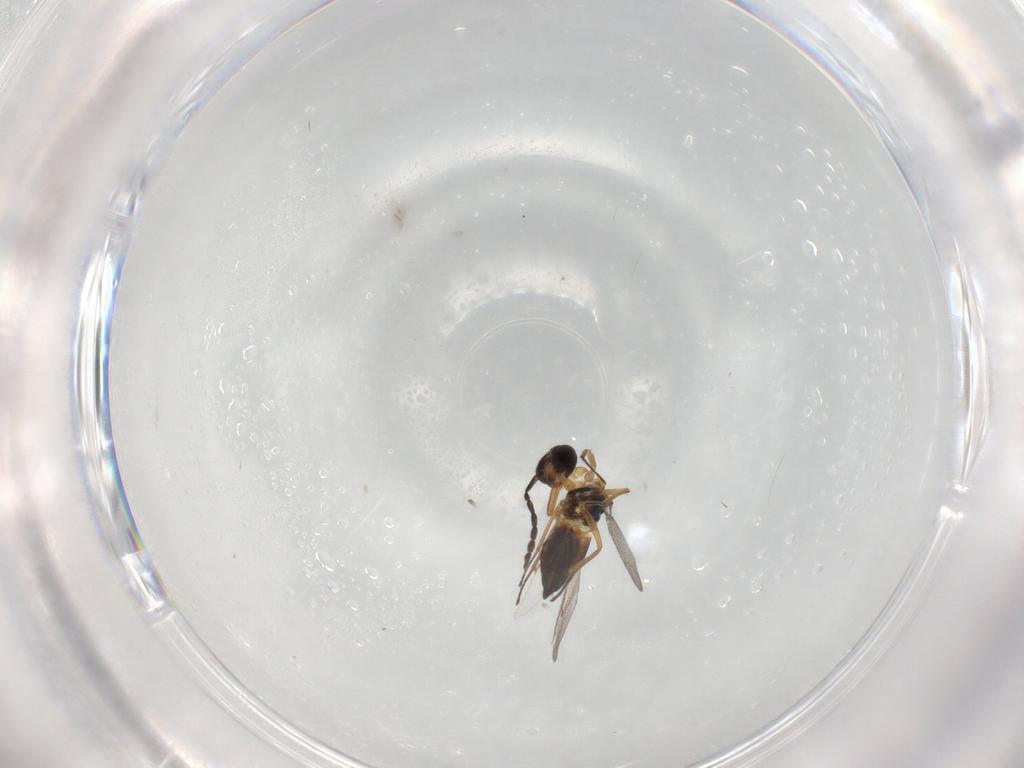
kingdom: Animalia
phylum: Arthropoda
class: Insecta
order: Hymenoptera
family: Eulophidae
